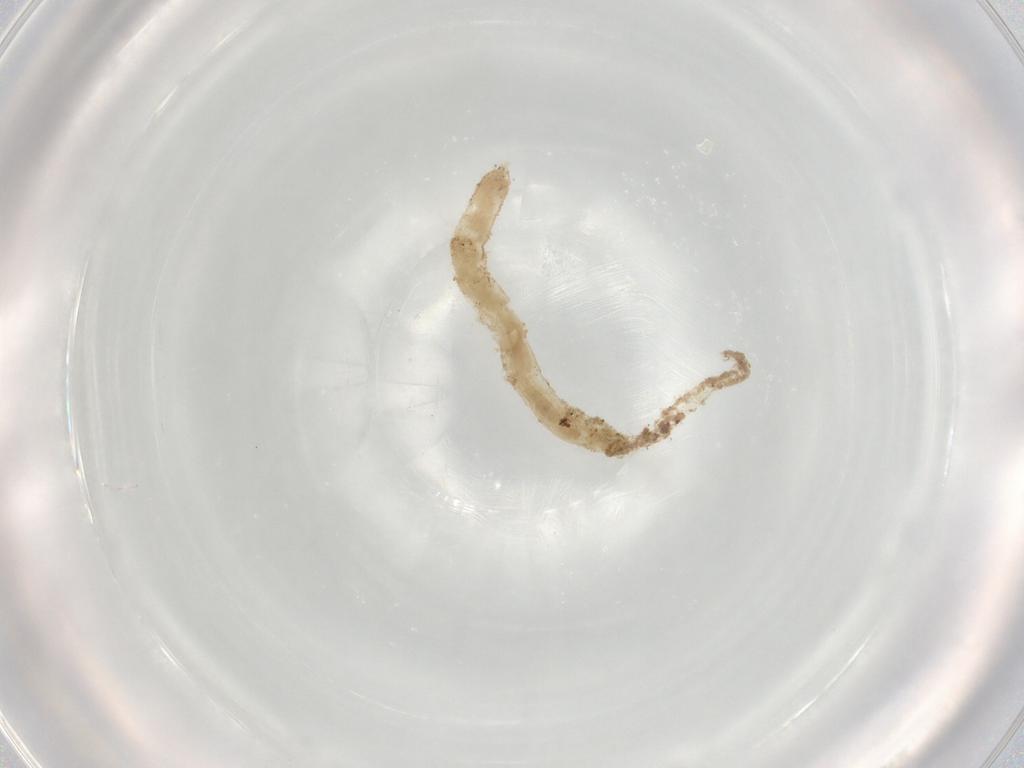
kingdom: Animalia
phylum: Arthropoda
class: Insecta
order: Diptera
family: Chironomidae
